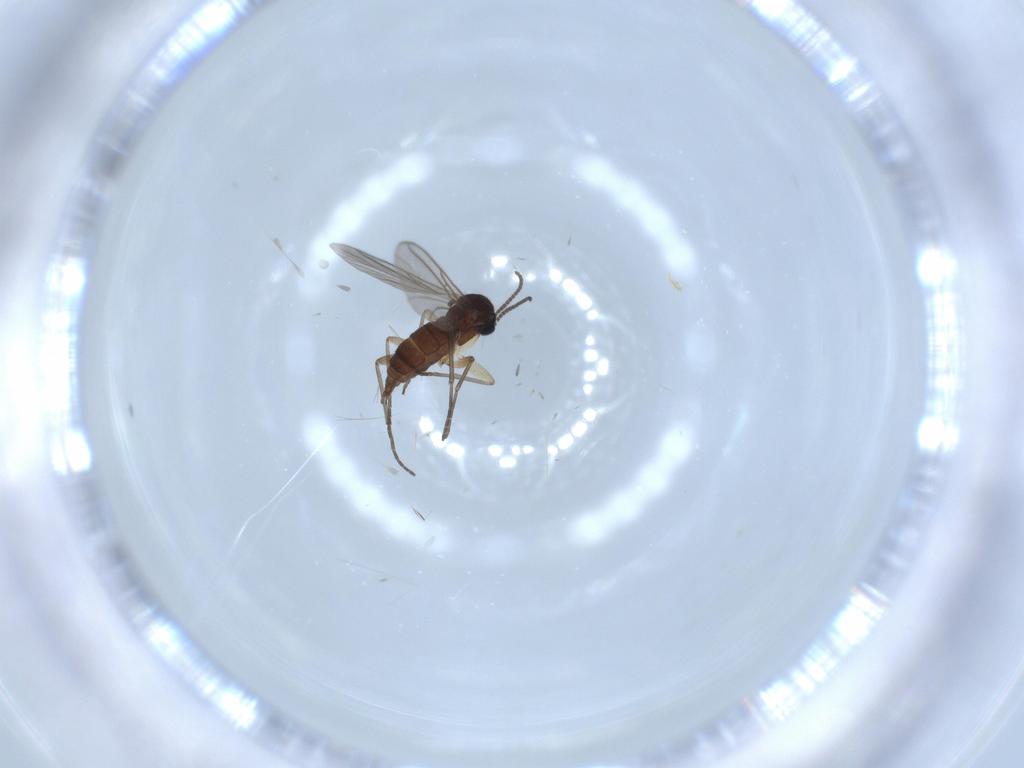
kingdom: Animalia
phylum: Arthropoda
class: Insecta
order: Diptera
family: Sciaridae
